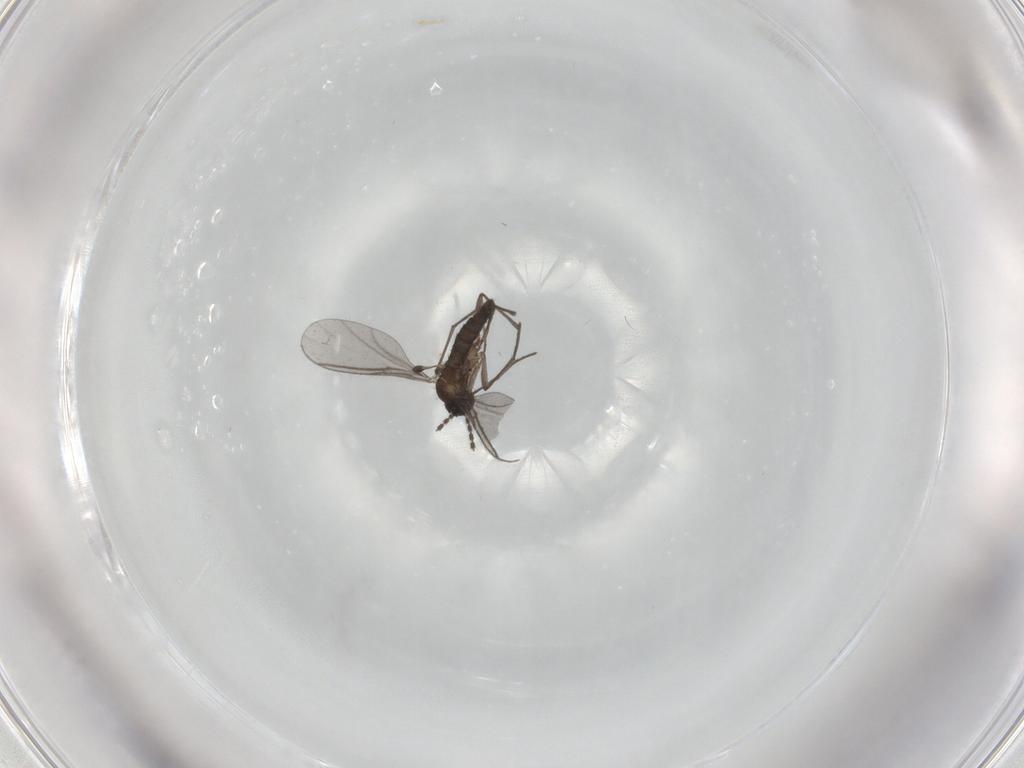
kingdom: Animalia
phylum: Arthropoda
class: Insecta
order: Diptera
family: Psychodidae
